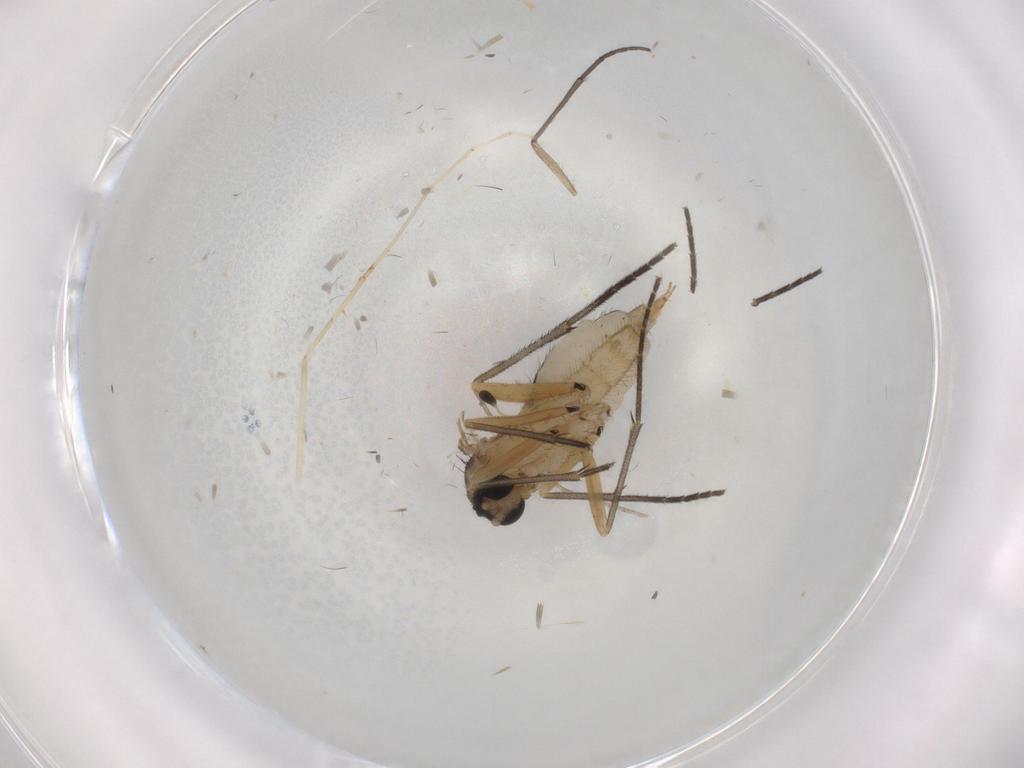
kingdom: Animalia
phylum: Arthropoda
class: Insecta
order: Diptera
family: Sciaridae
